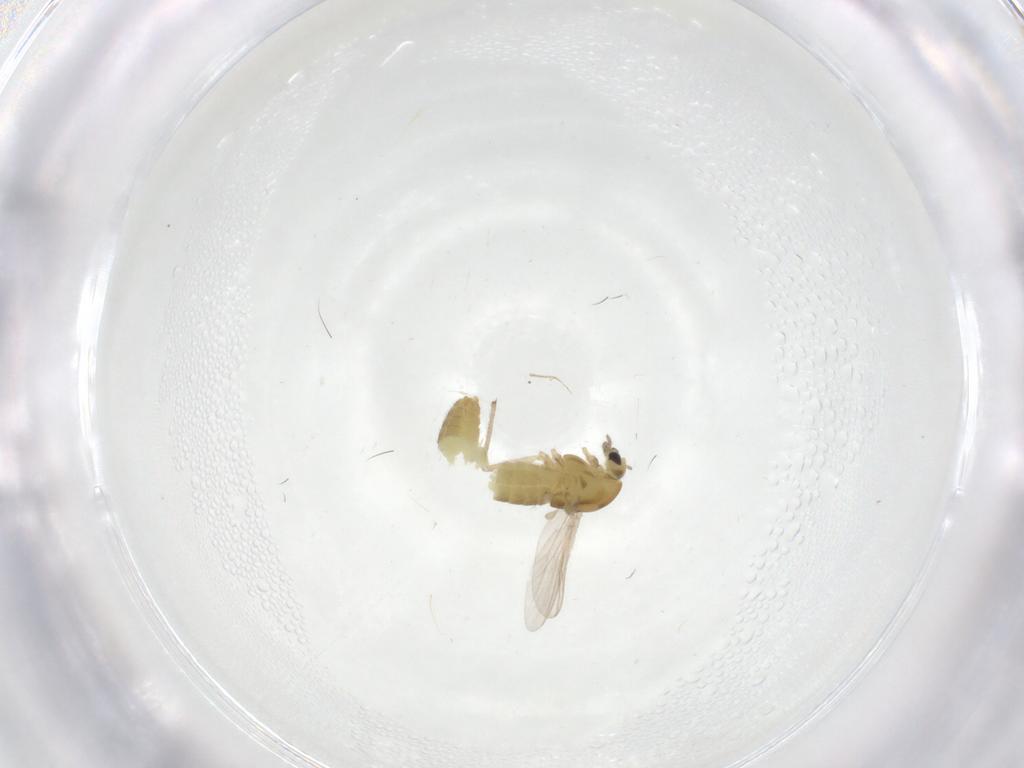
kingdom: Animalia
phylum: Arthropoda
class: Insecta
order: Diptera
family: Chironomidae
